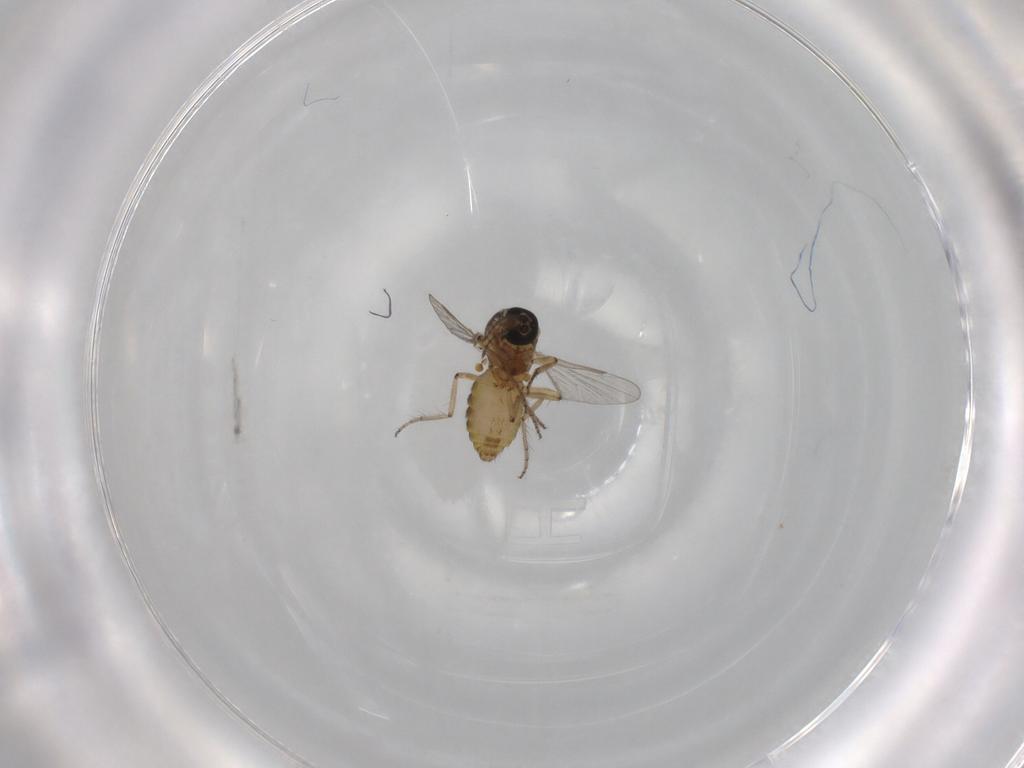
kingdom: Animalia
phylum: Arthropoda
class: Insecta
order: Diptera
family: Ceratopogonidae
